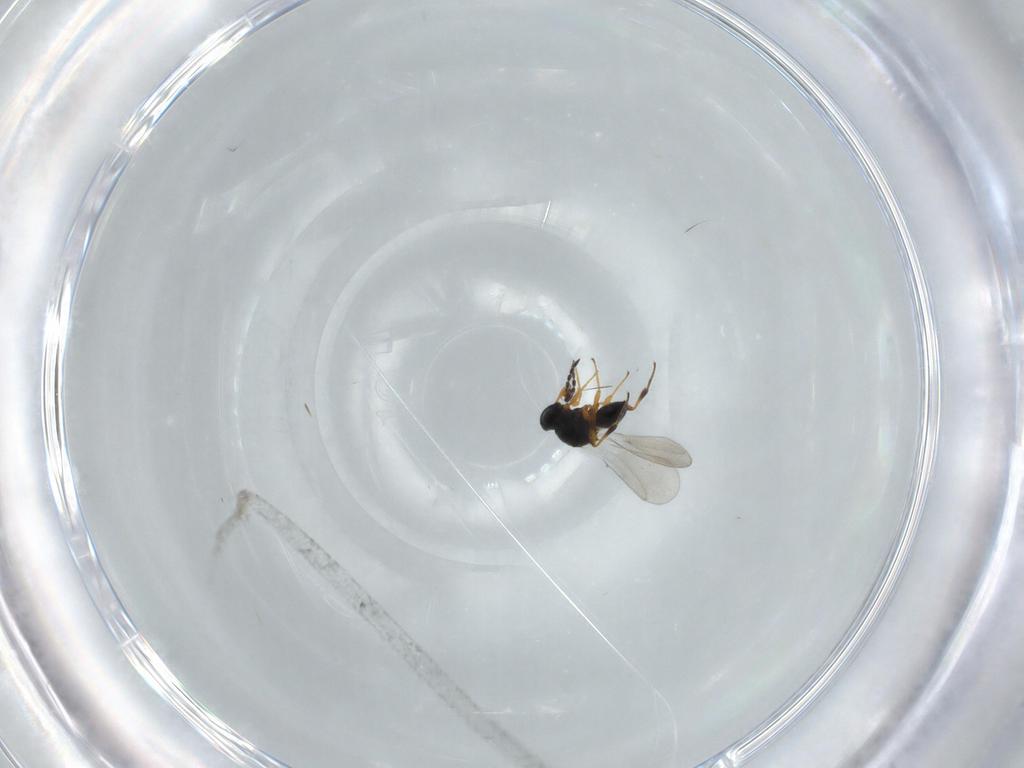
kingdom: Animalia
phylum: Arthropoda
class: Insecta
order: Hymenoptera
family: Platygastridae
